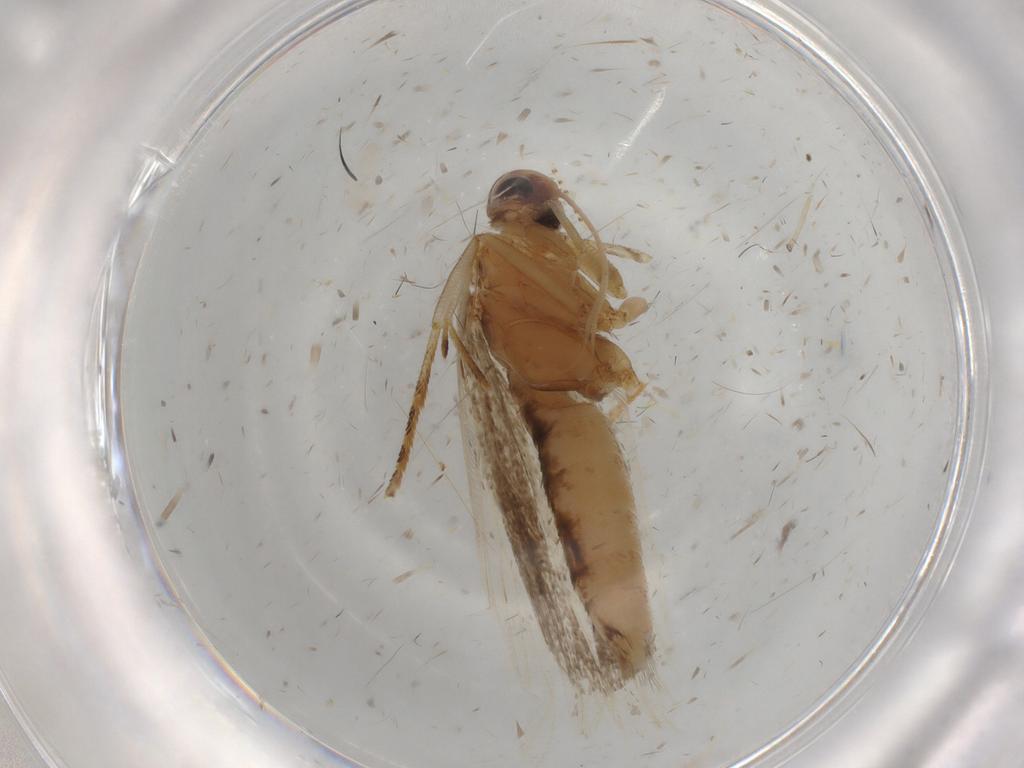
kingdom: Animalia
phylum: Arthropoda
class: Insecta
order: Lepidoptera
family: Gelechiidae
